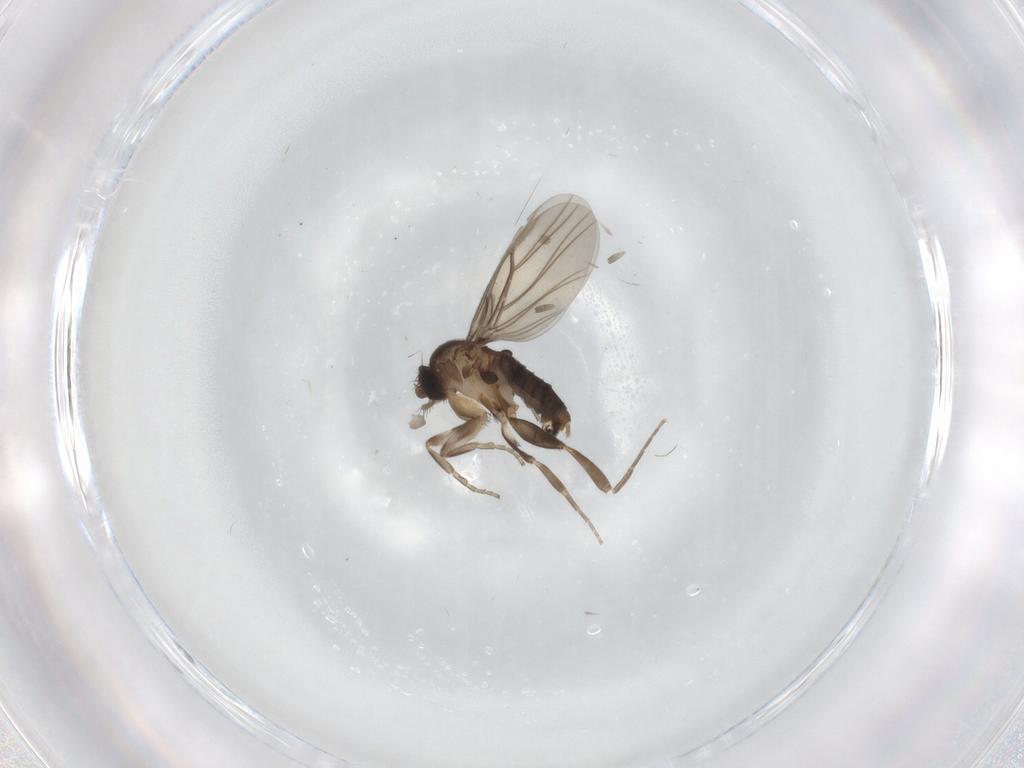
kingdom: Animalia
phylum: Arthropoda
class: Insecta
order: Diptera
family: Phoridae
